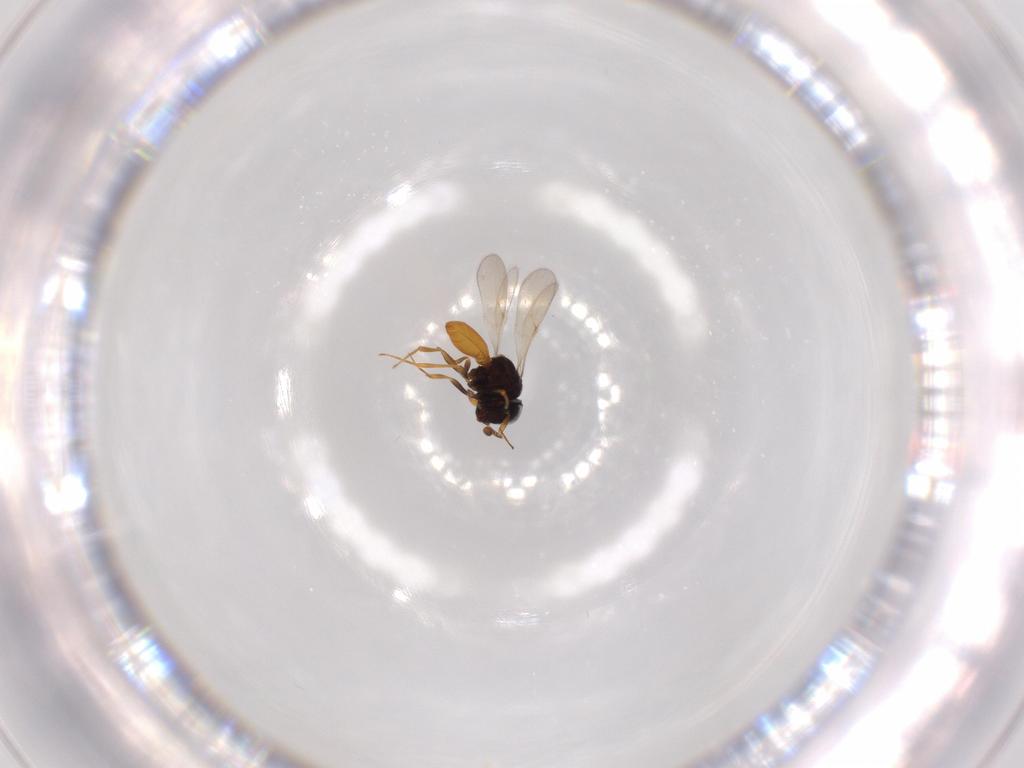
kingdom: Animalia
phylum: Arthropoda
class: Insecta
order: Hymenoptera
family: Scelionidae
